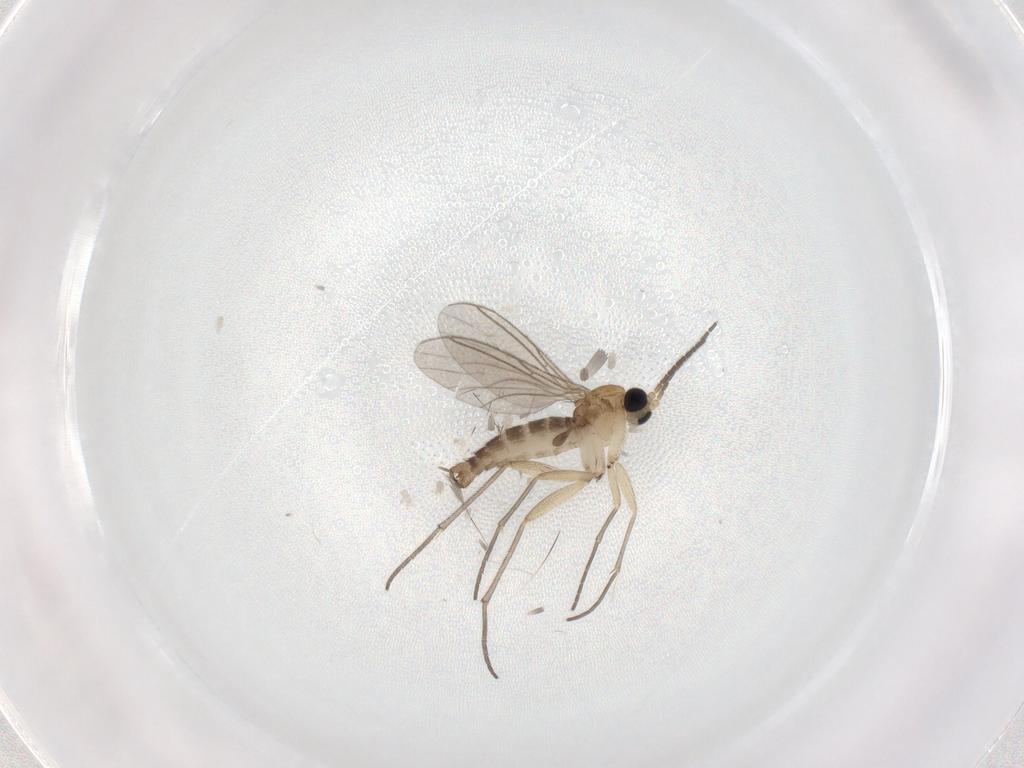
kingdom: Animalia
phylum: Arthropoda
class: Insecta
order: Diptera
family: Chironomidae
